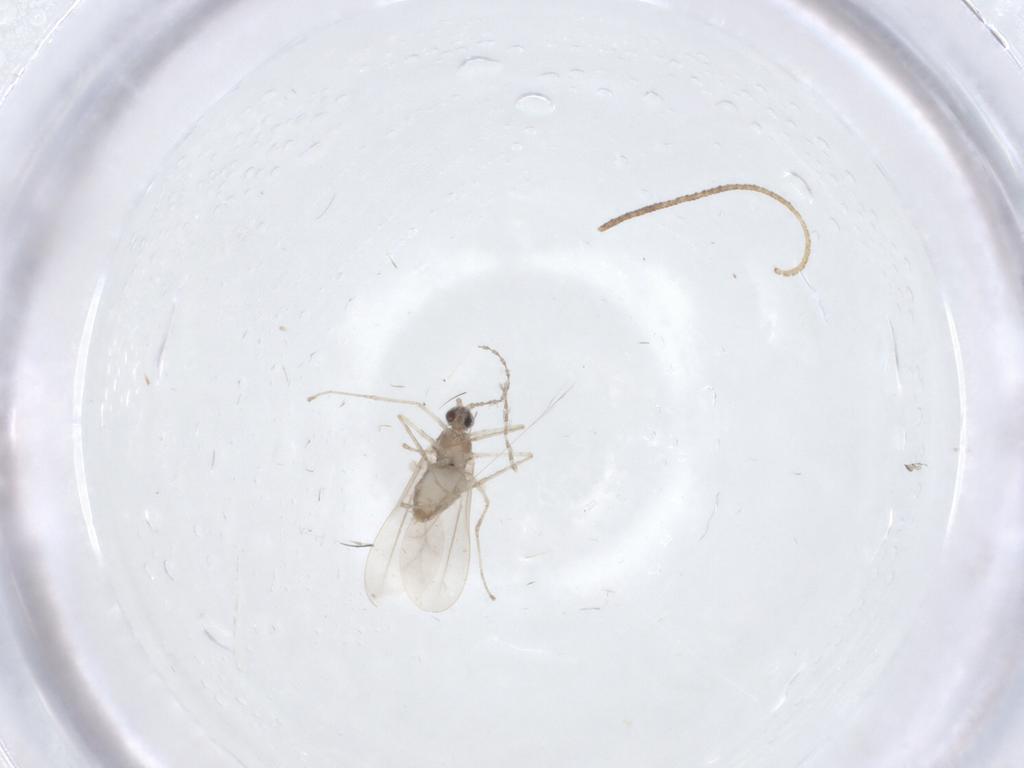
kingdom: Animalia
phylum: Arthropoda
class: Insecta
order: Diptera
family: Cecidomyiidae
